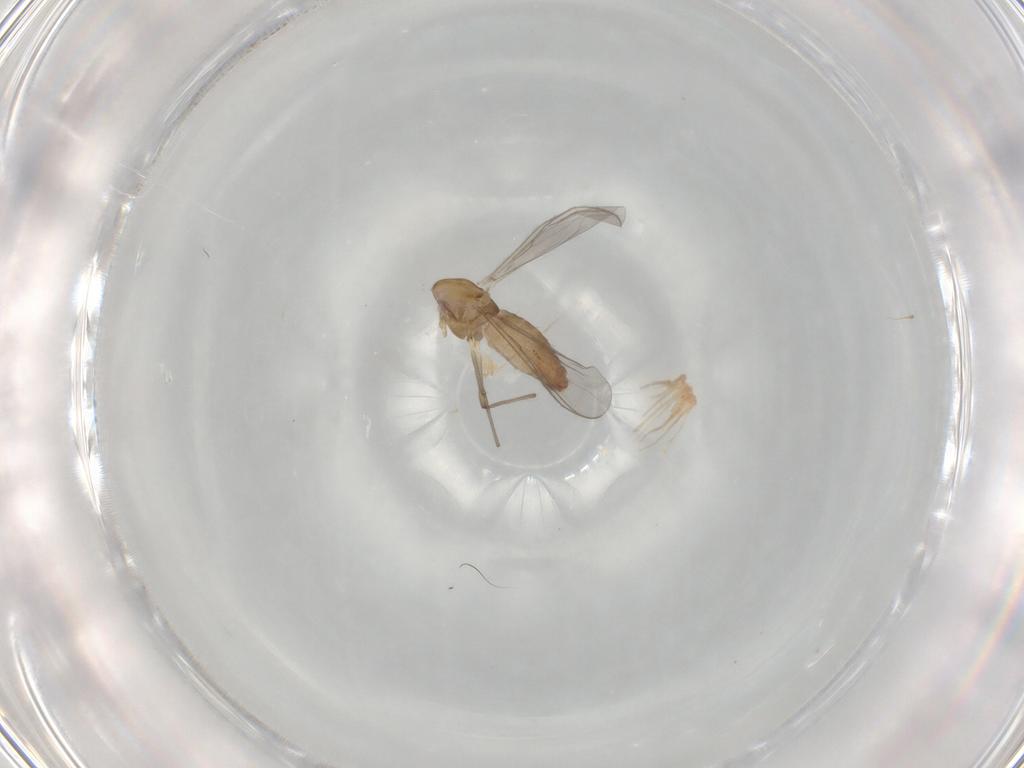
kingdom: Animalia
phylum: Arthropoda
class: Insecta
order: Diptera
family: Chironomidae
